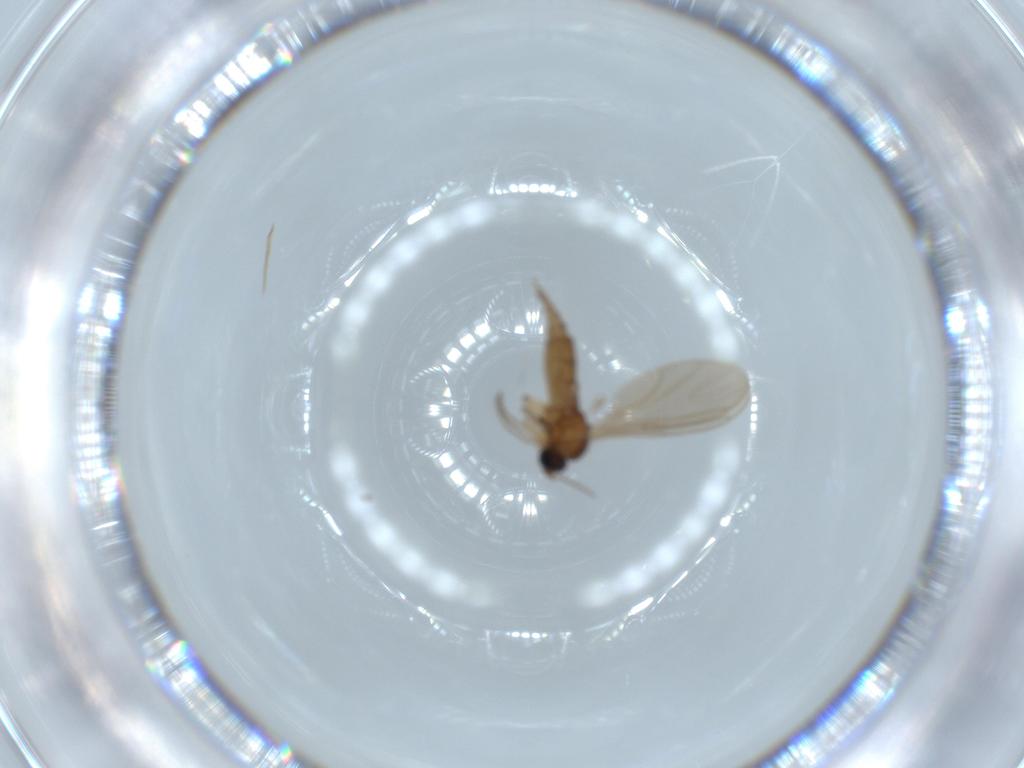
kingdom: Animalia
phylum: Arthropoda
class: Insecta
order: Diptera
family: Sciaridae
